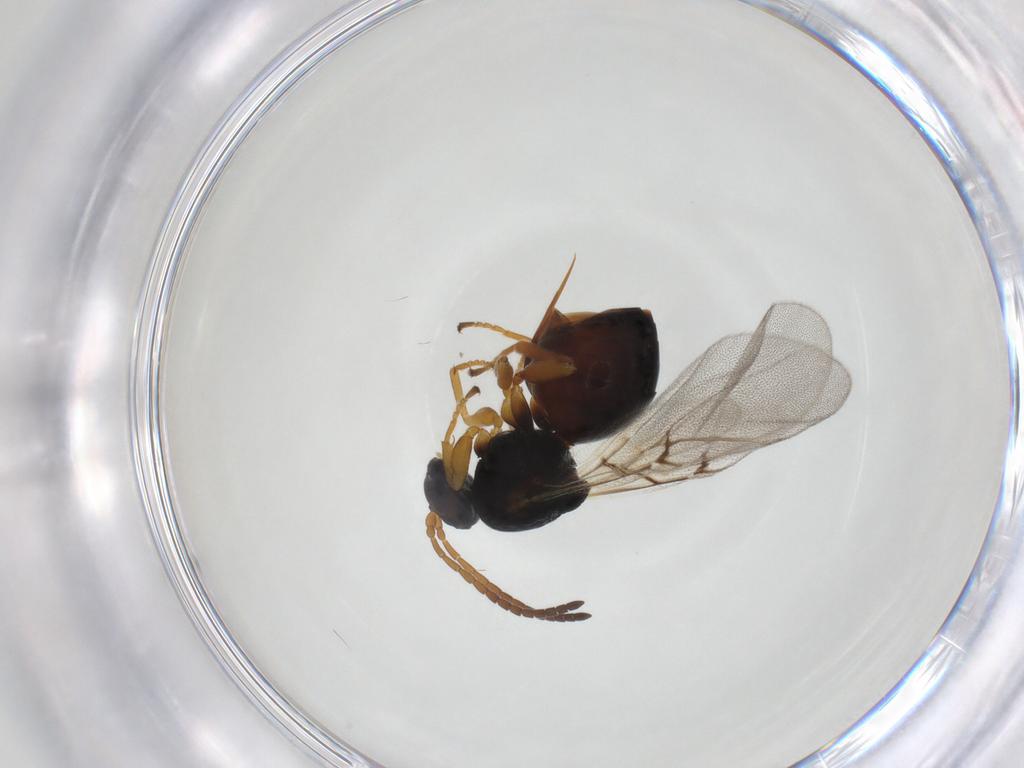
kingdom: Animalia
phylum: Arthropoda
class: Insecta
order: Hymenoptera
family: Cynipidae
